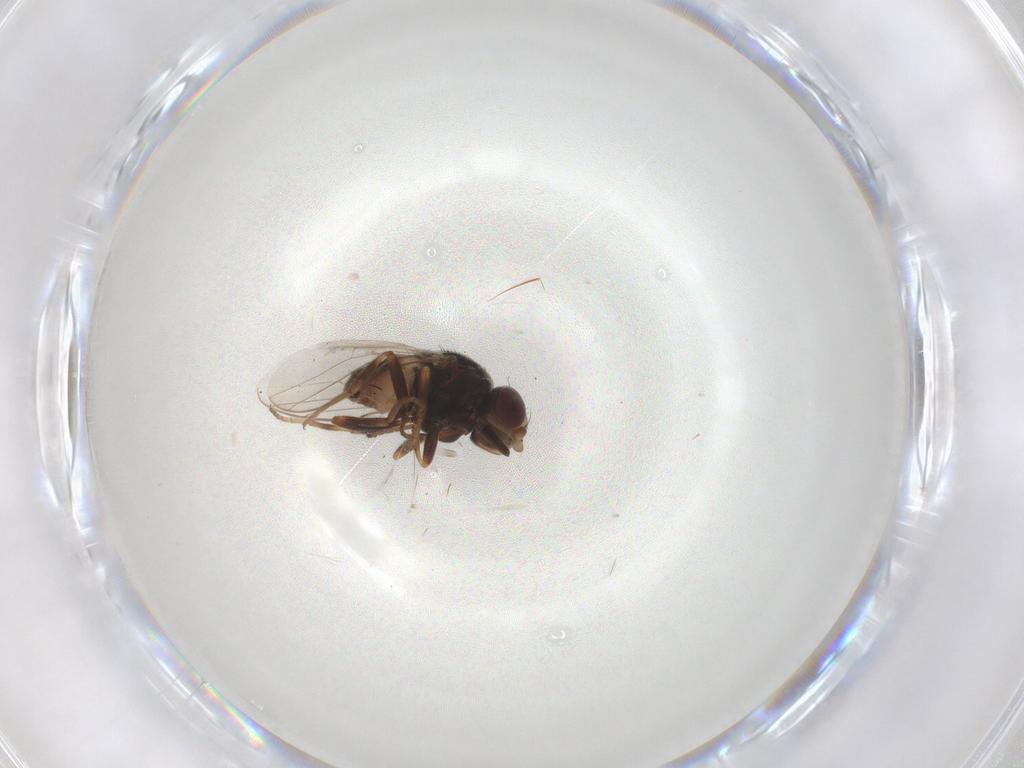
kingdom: Animalia
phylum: Arthropoda
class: Insecta
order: Diptera
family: Chloropidae
